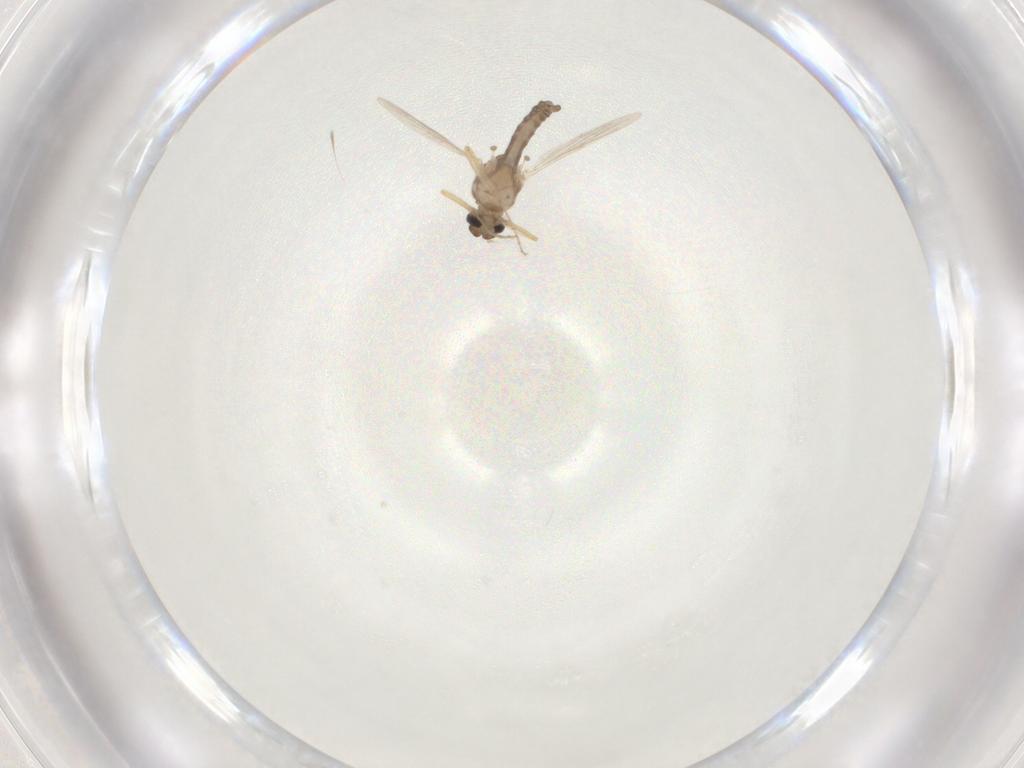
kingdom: Animalia
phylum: Arthropoda
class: Insecta
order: Diptera
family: Ceratopogonidae
